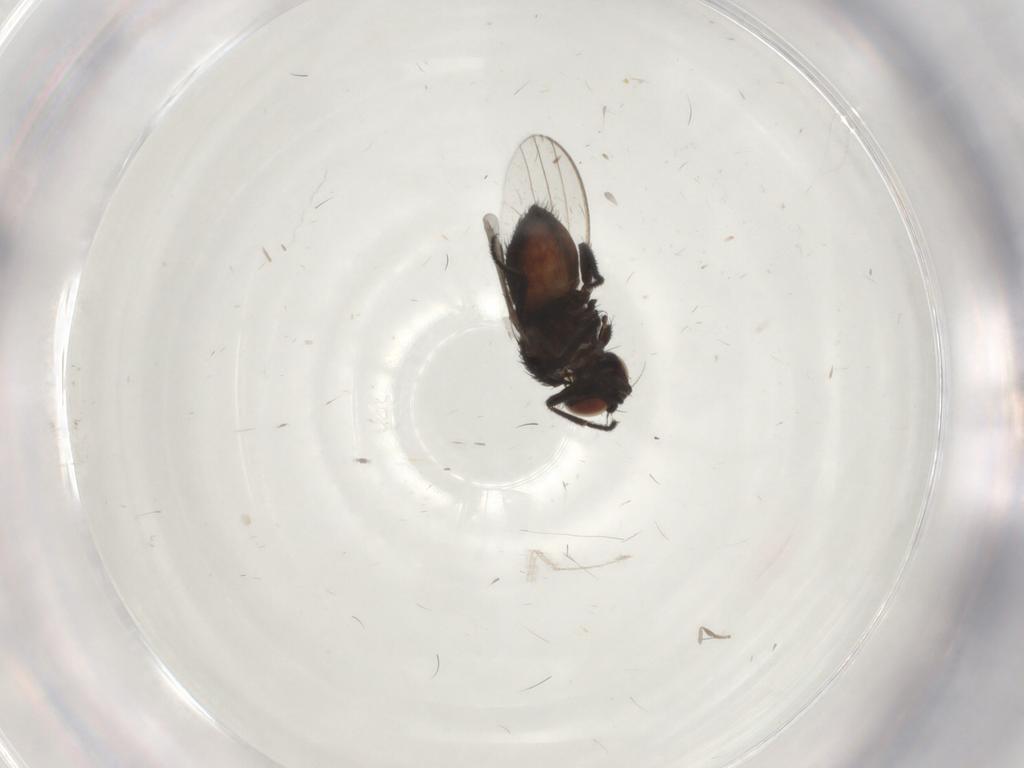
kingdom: Animalia
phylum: Arthropoda
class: Insecta
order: Diptera
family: Milichiidae
